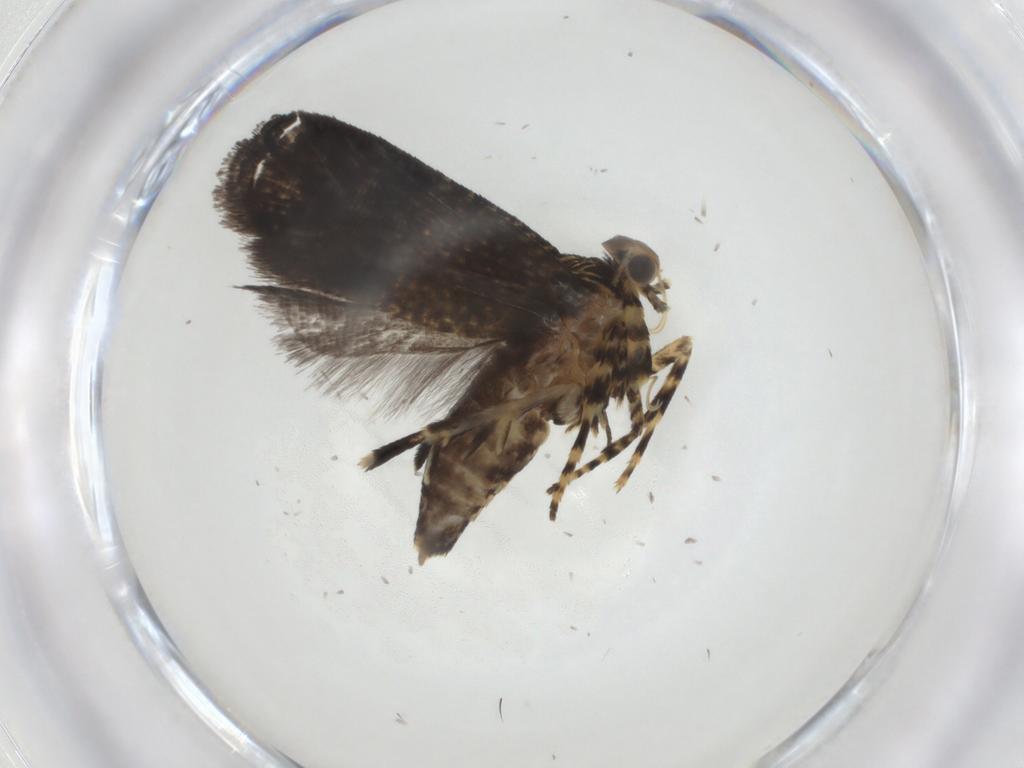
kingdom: Animalia
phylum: Arthropoda
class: Insecta
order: Lepidoptera
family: Geometridae
